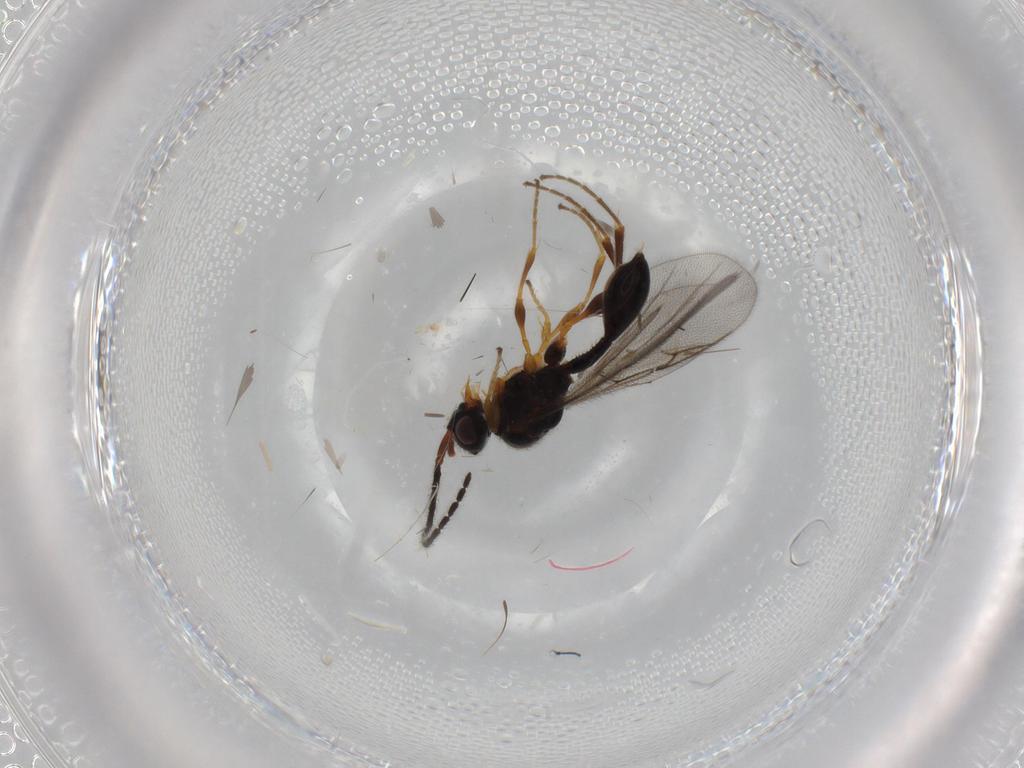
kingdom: Animalia
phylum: Arthropoda
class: Insecta
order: Hymenoptera
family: Diapriidae
